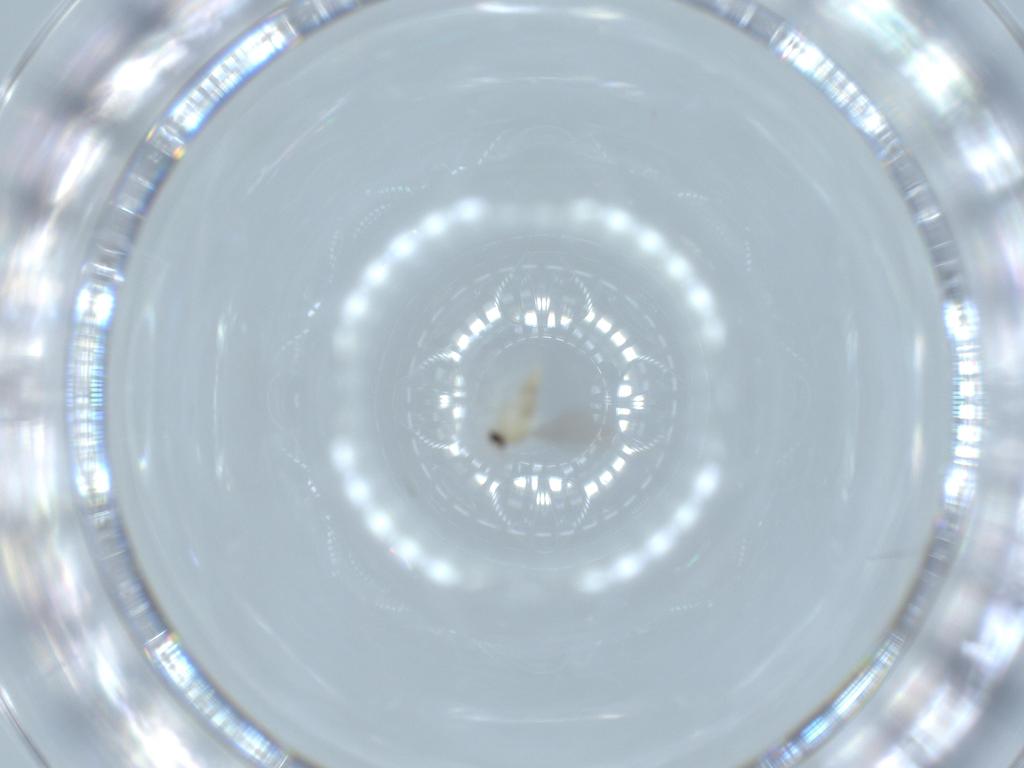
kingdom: Animalia
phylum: Arthropoda
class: Insecta
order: Diptera
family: Cecidomyiidae
